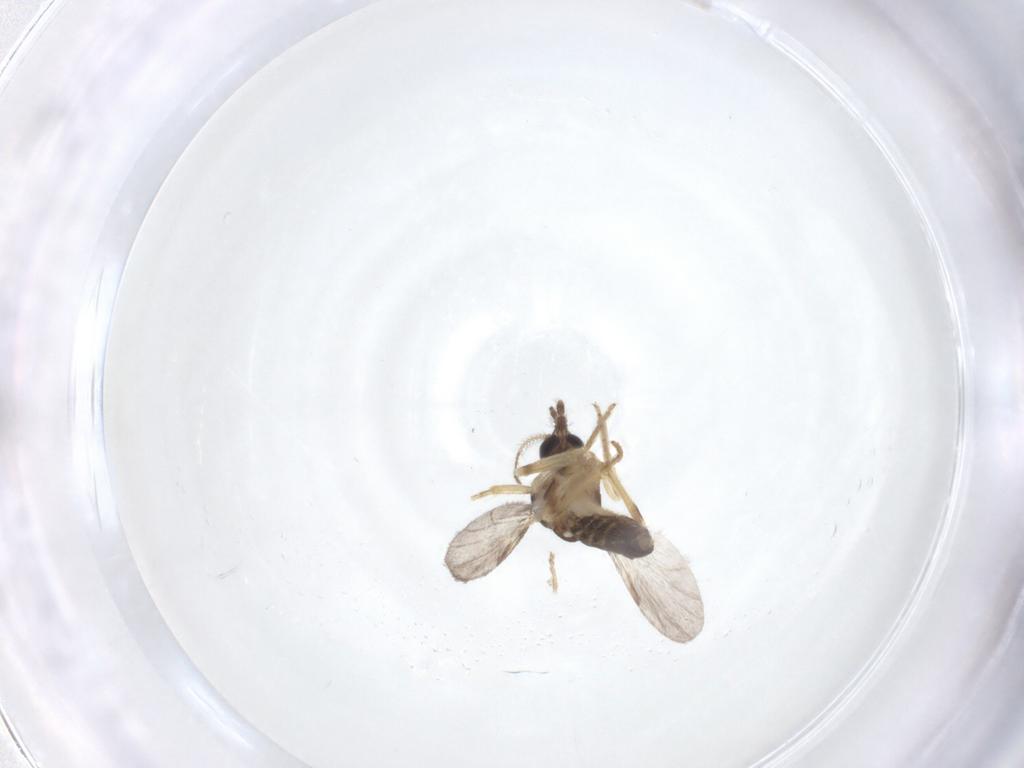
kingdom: Animalia
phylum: Arthropoda
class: Insecta
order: Diptera
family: Ceratopogonidae
